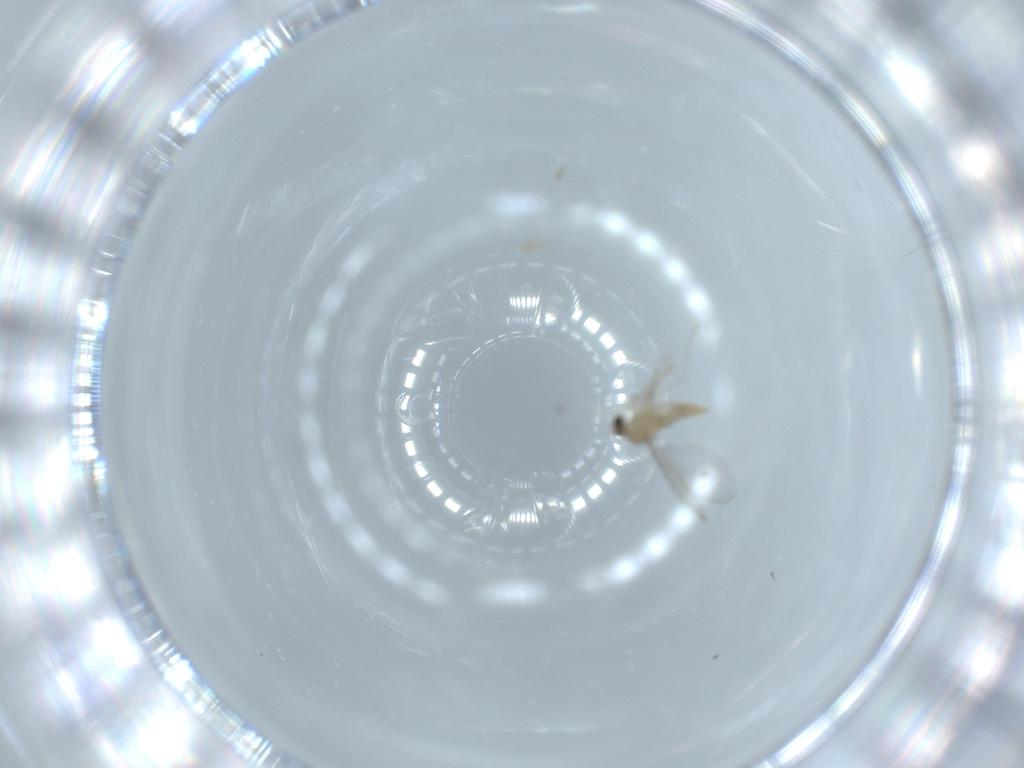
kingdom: Animalia
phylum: Arthropoda
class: Insecta
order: Diptera
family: Cecidomyiidae
